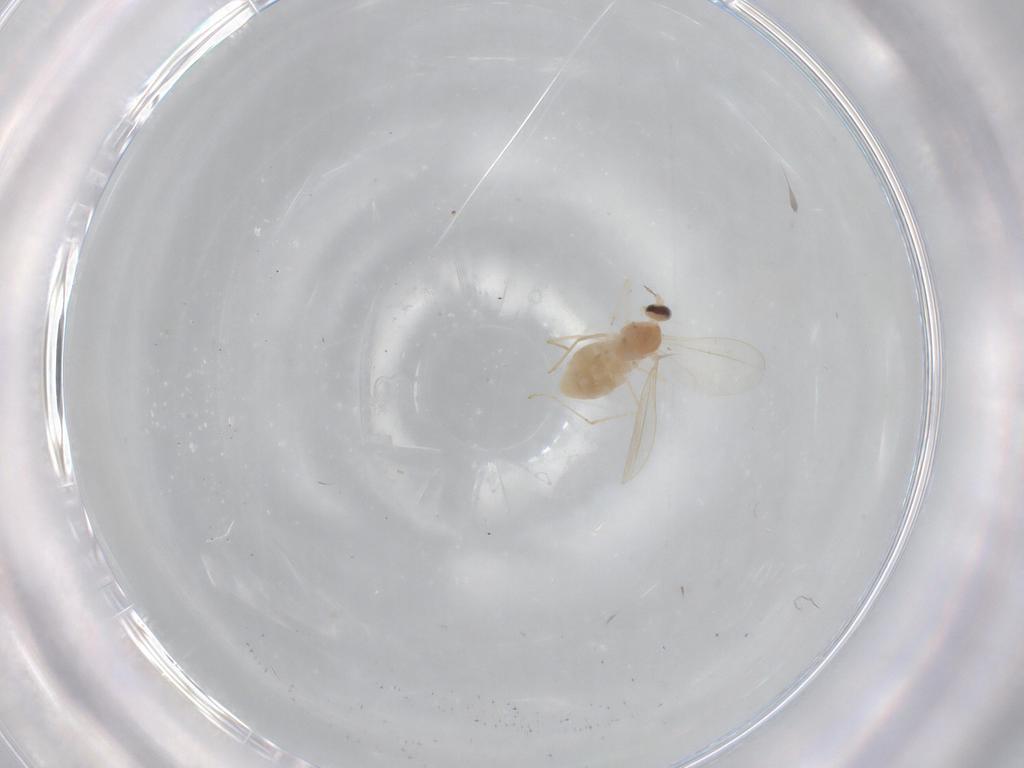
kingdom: Animalia
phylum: Arthropoda
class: Insecta
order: Diptera
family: Cecidomyiidae
